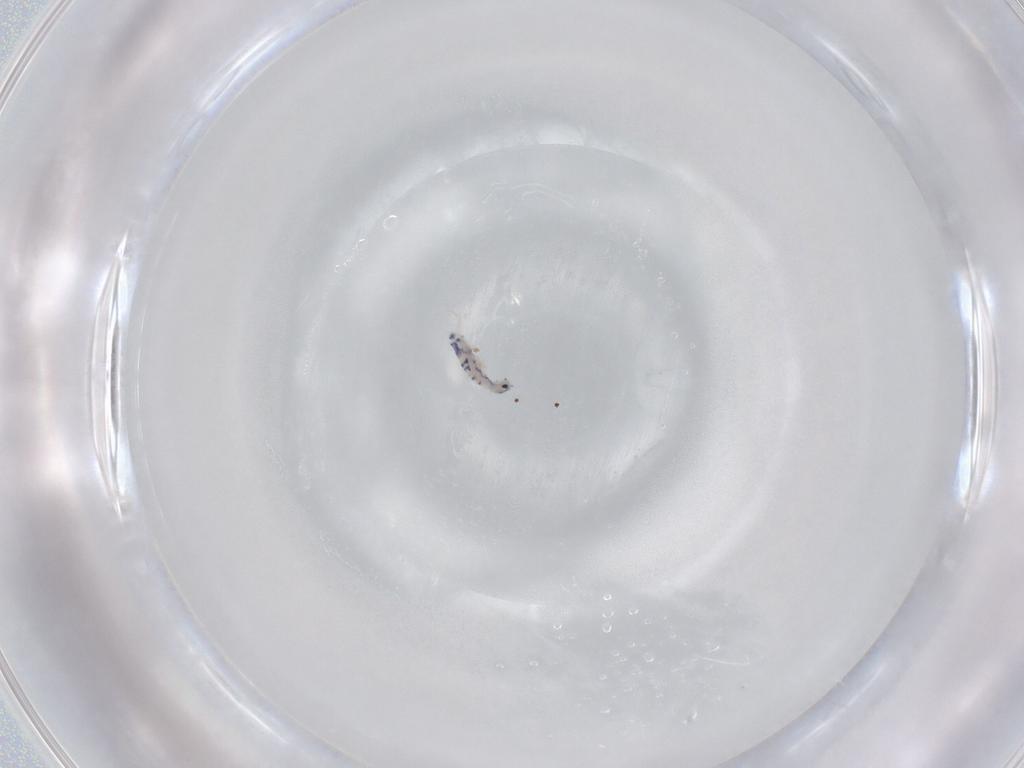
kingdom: Animalia
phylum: Arthropoda
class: Collembola
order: Entomobryomorpha
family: Entomobryidae
